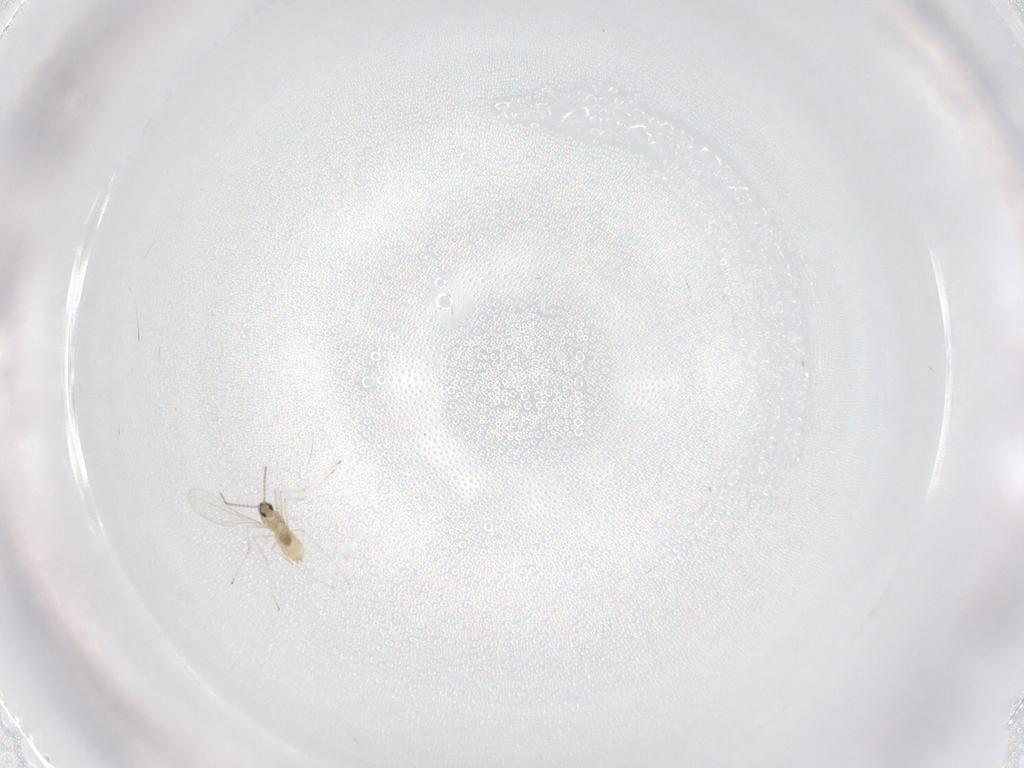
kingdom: Animalia
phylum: Arthropoda
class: Insecta
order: Diptera
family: Cecidomyiidae
